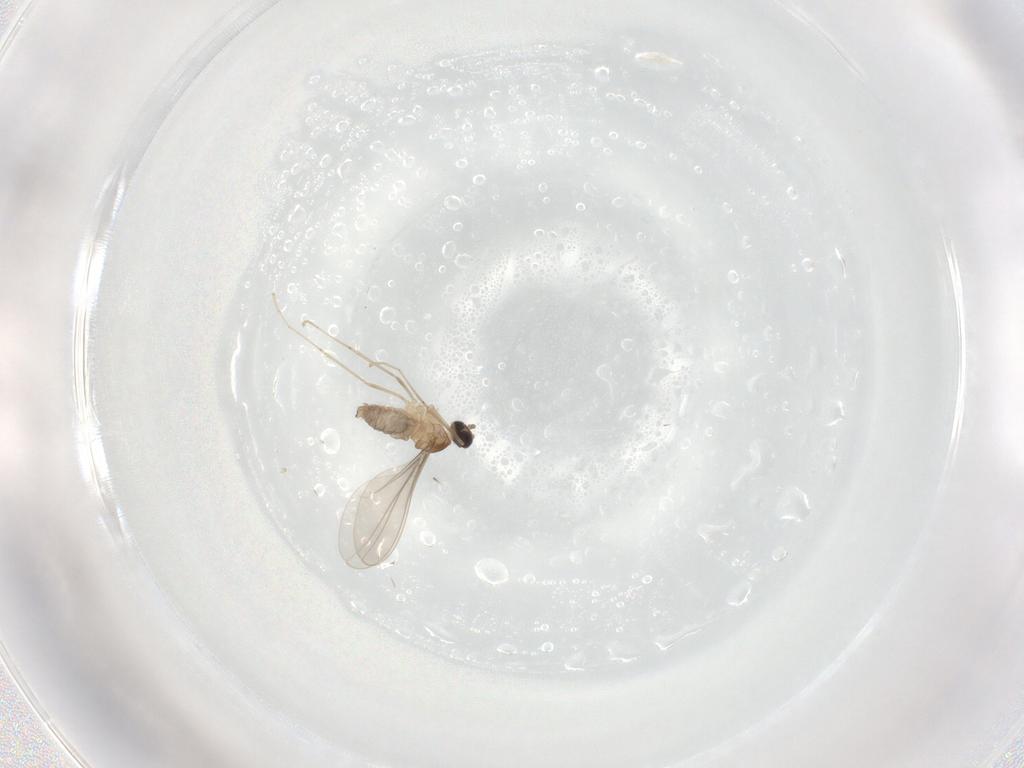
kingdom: Animalia
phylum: Arthropoda
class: Insecta
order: Diptera
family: Cecidomyiidae
